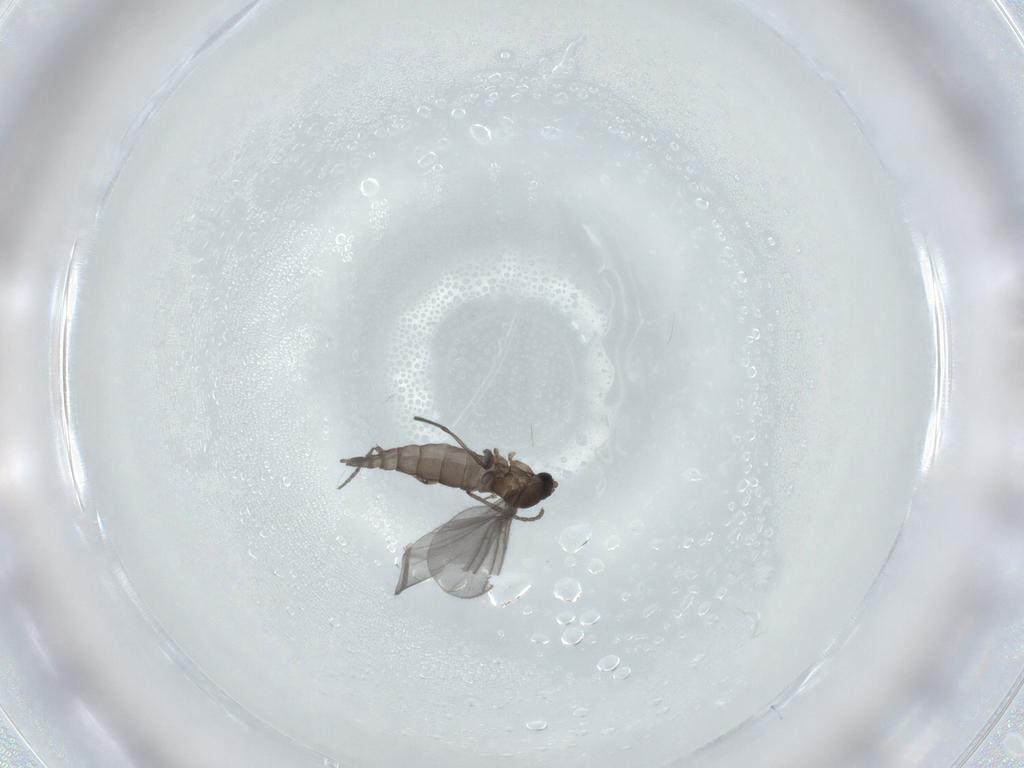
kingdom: Animalia
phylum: Arthropoda
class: Insecta
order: Diptera
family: Sciaridae
